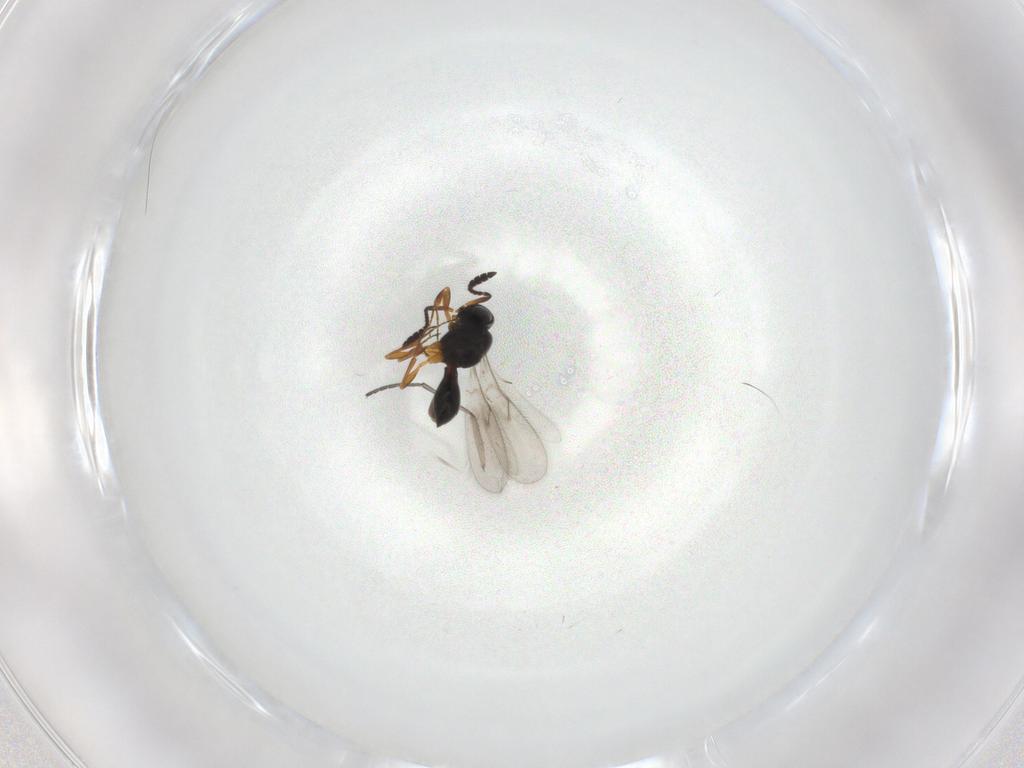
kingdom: Animalia
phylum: Arthropoda
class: Insecta
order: Hymenoptera
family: Scelionidae
